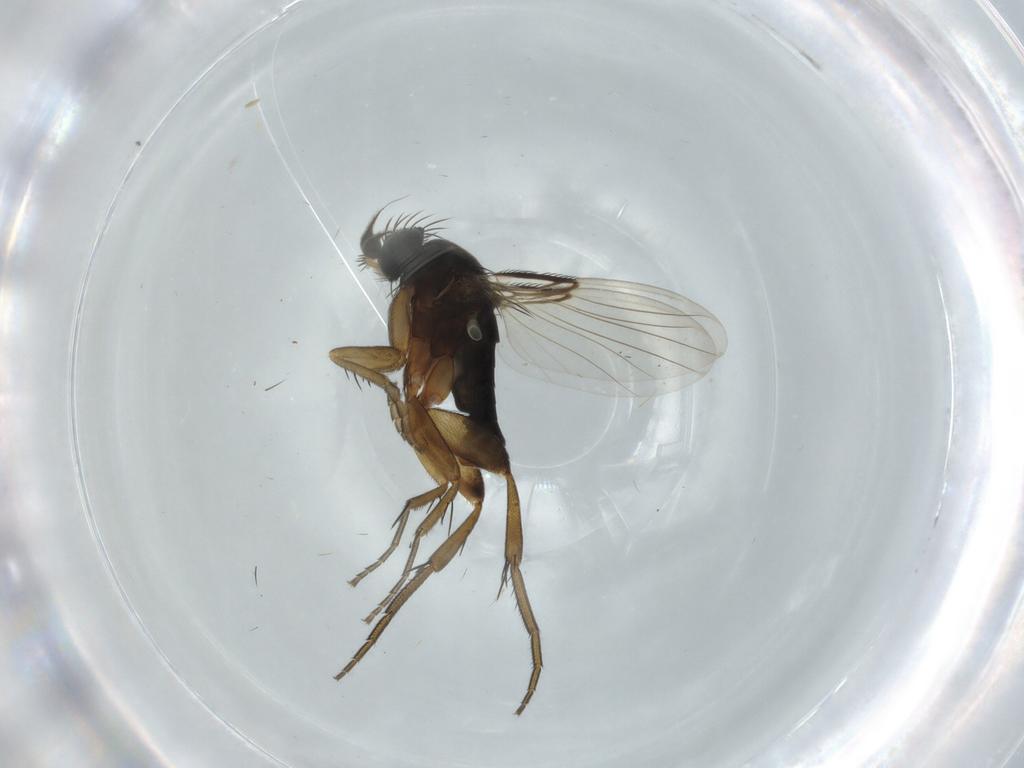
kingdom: Animalia
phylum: Arthropoda
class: Insecta
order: Diptera
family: Phoridae
